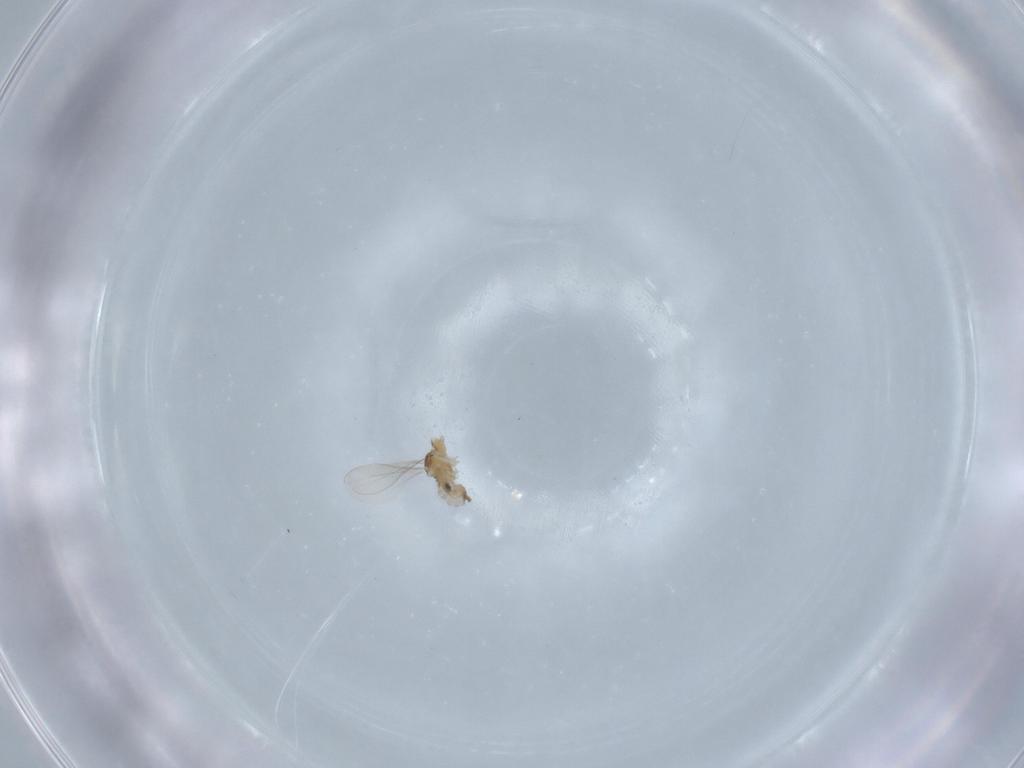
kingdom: Animalia
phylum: Arthropoda
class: Insecta
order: Diptera
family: Cecidomyiidae
